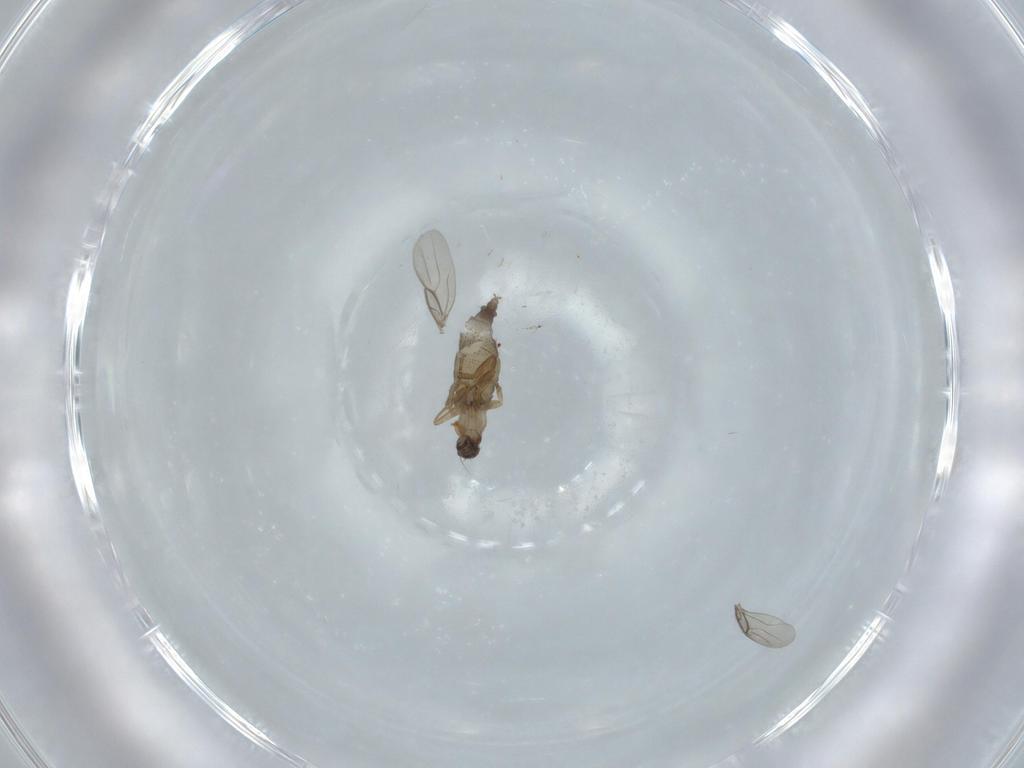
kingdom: Animalia
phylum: Arthropoda
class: Insecta
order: Diptera
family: Phoridae
